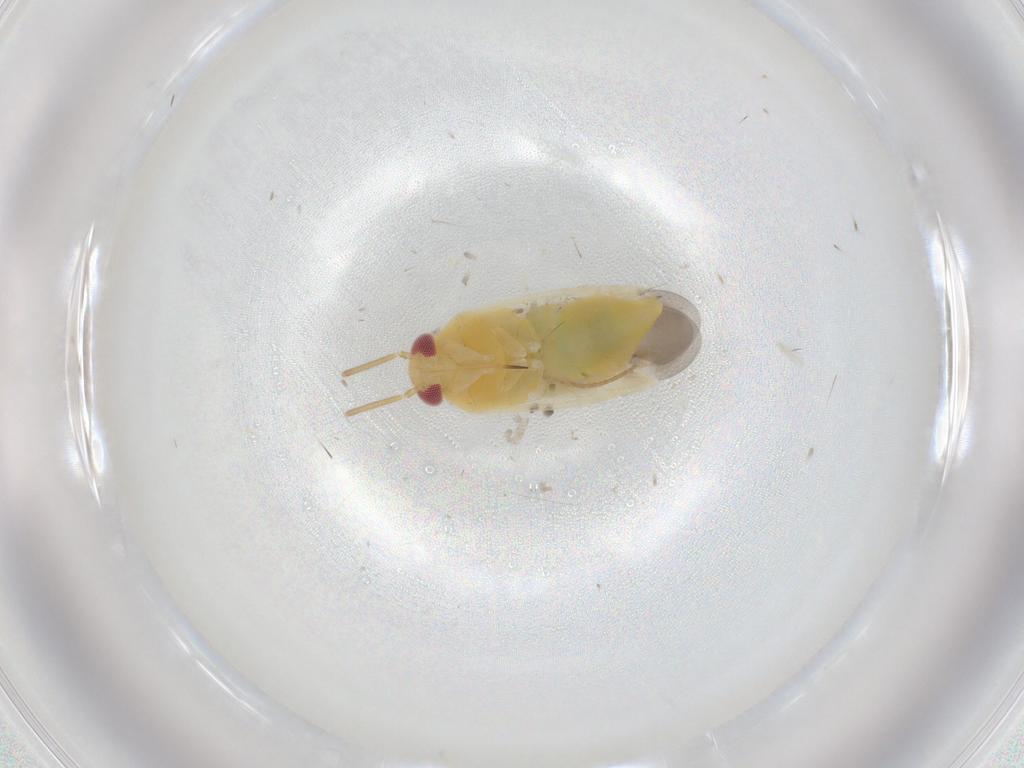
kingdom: Animalia
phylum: Arthropoda
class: Insecta
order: Hemiptera
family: Miridae
